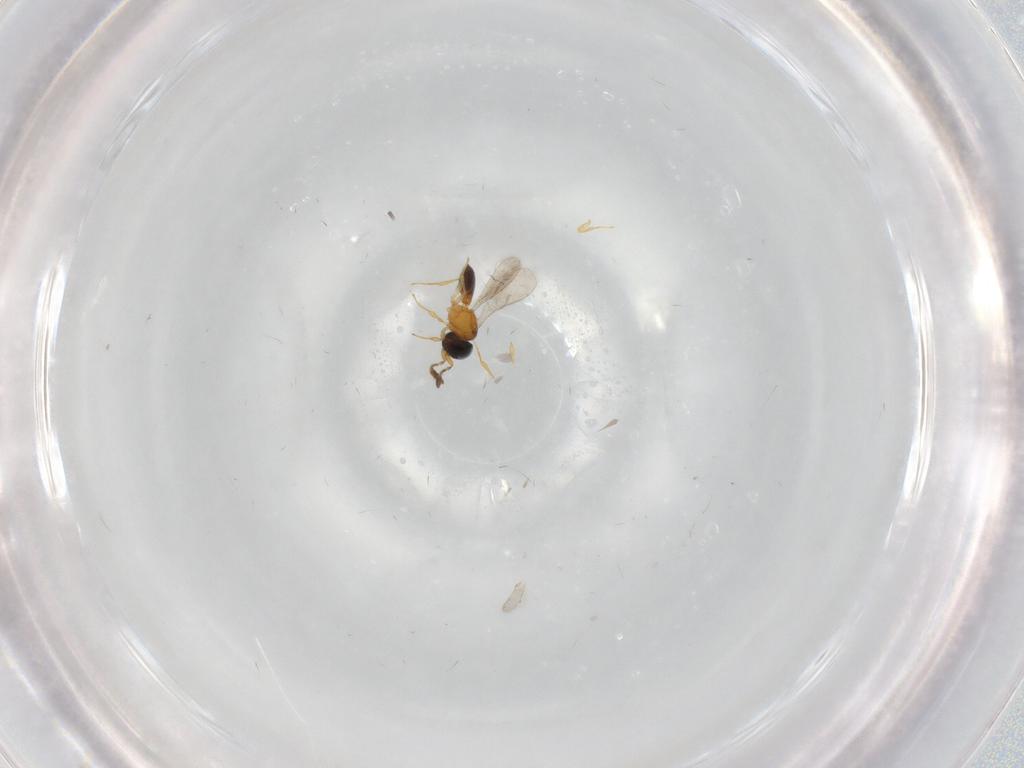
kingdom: Animalia
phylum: Arthropoda
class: Insecta
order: Hymenoptera
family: Scelionidae
